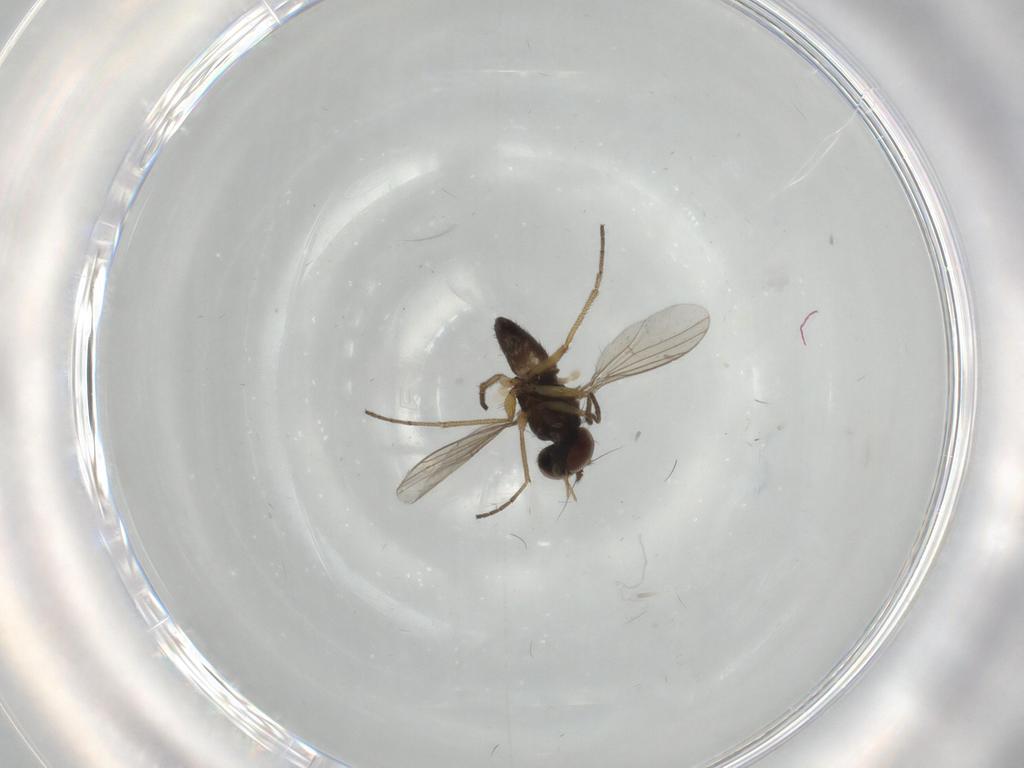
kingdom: Animalia
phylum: Arthropoda
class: Insecta
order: Diptera
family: Dolichopodidae
